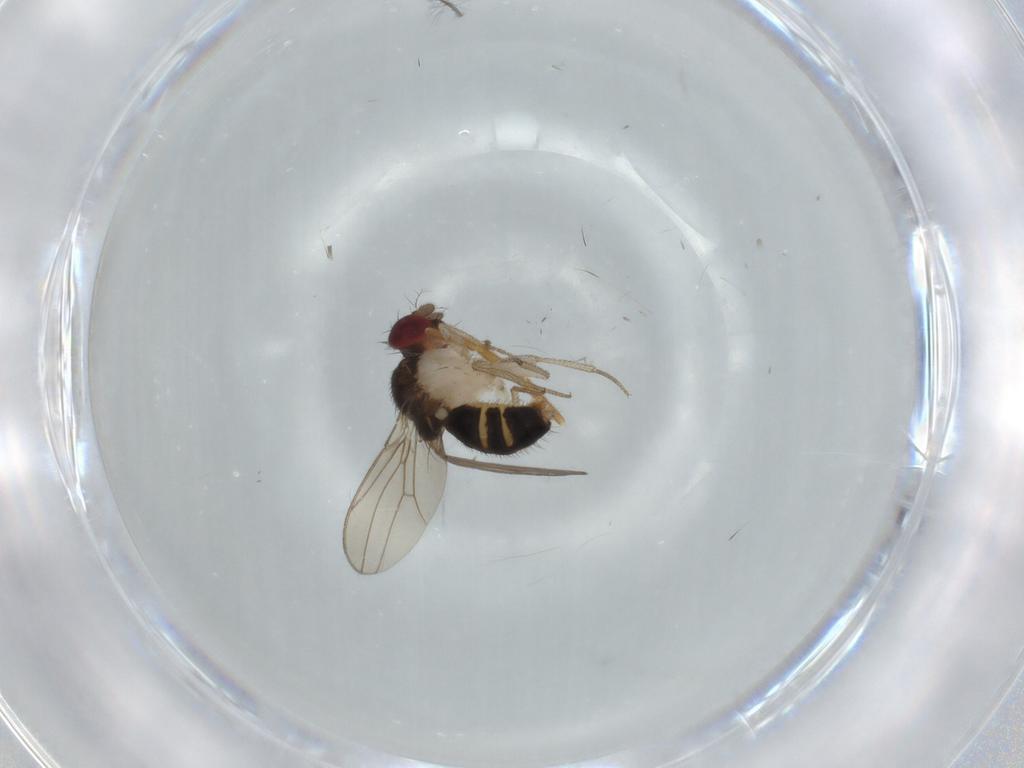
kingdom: Animalia
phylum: Arthropoda
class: Insecta
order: Diptera
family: Drosophilidae
